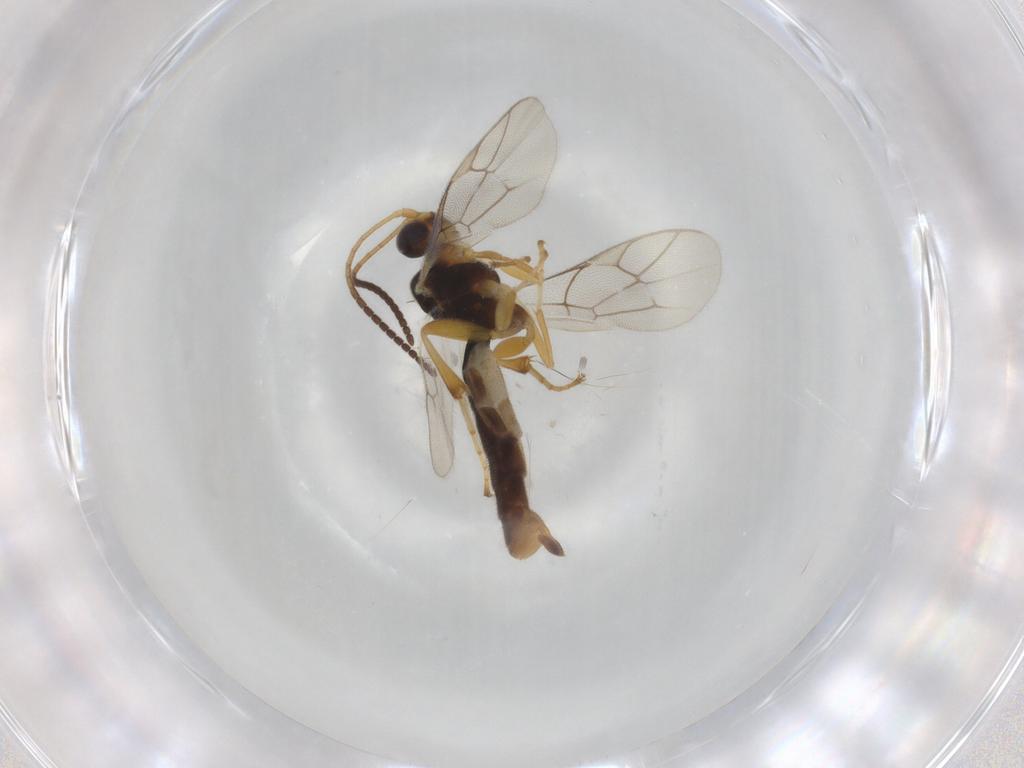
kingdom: Animalia
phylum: Arthropoda
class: Insecta
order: Hymenoptera
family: Ichneumonidae
